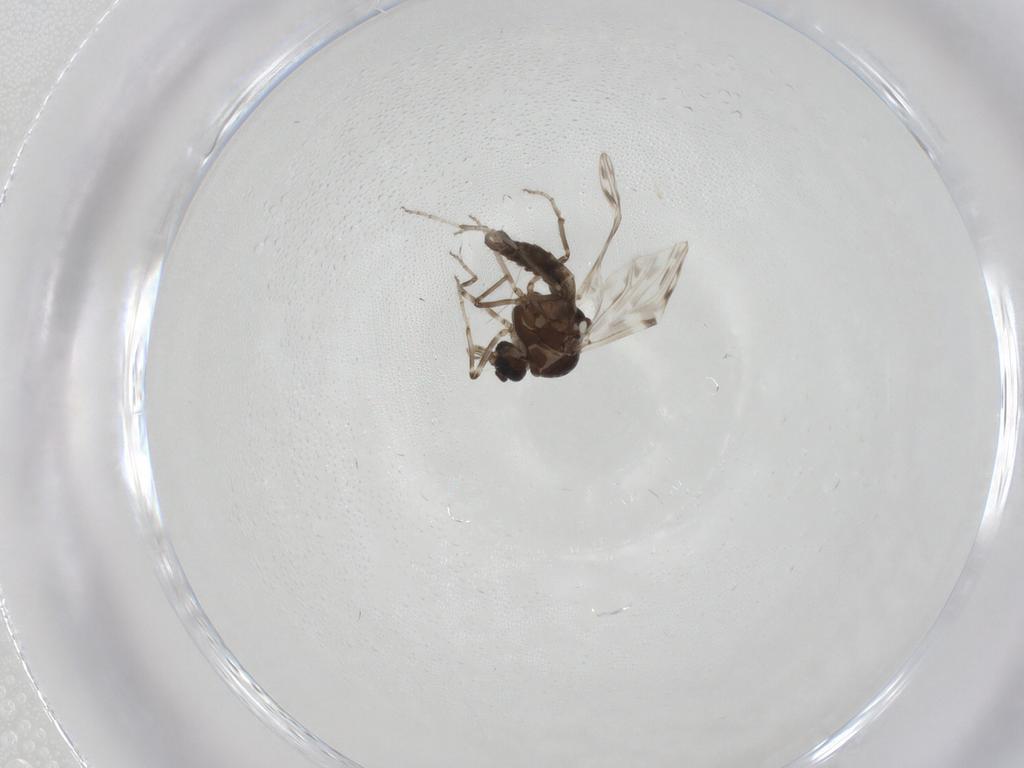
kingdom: Animalia
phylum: Arthropoda
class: Insecta
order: Diptera
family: Ceratopogonidae
